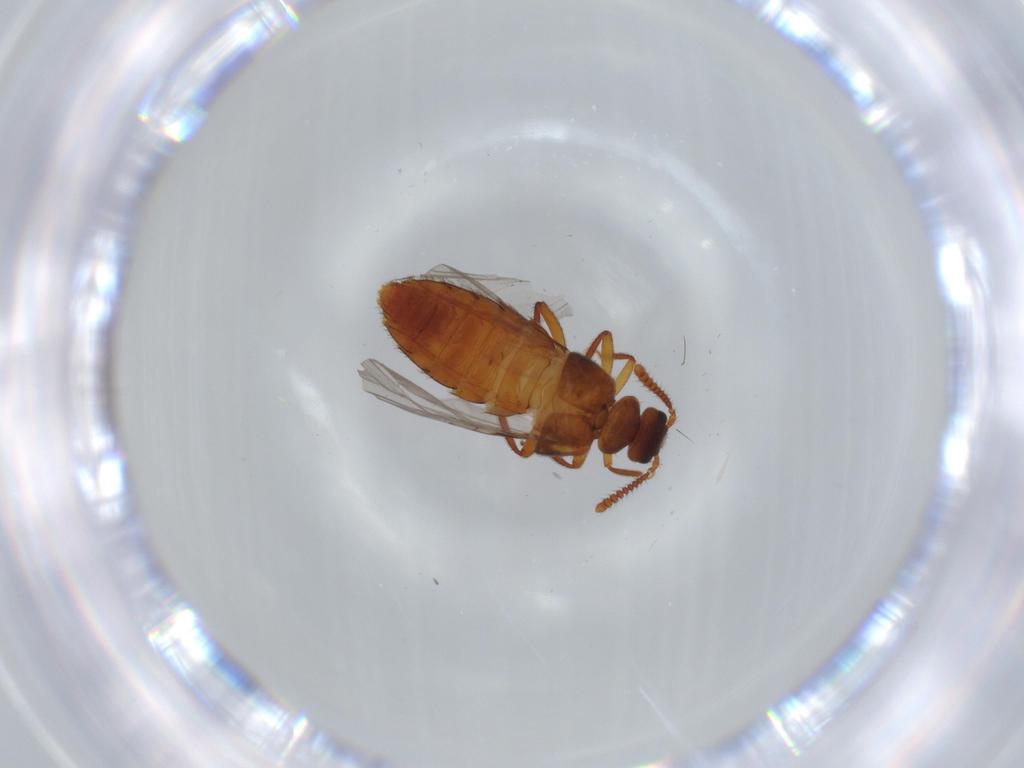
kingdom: Animalia
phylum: Arthropoda
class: Insecta
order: Coleoptera
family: Staphylinidae
